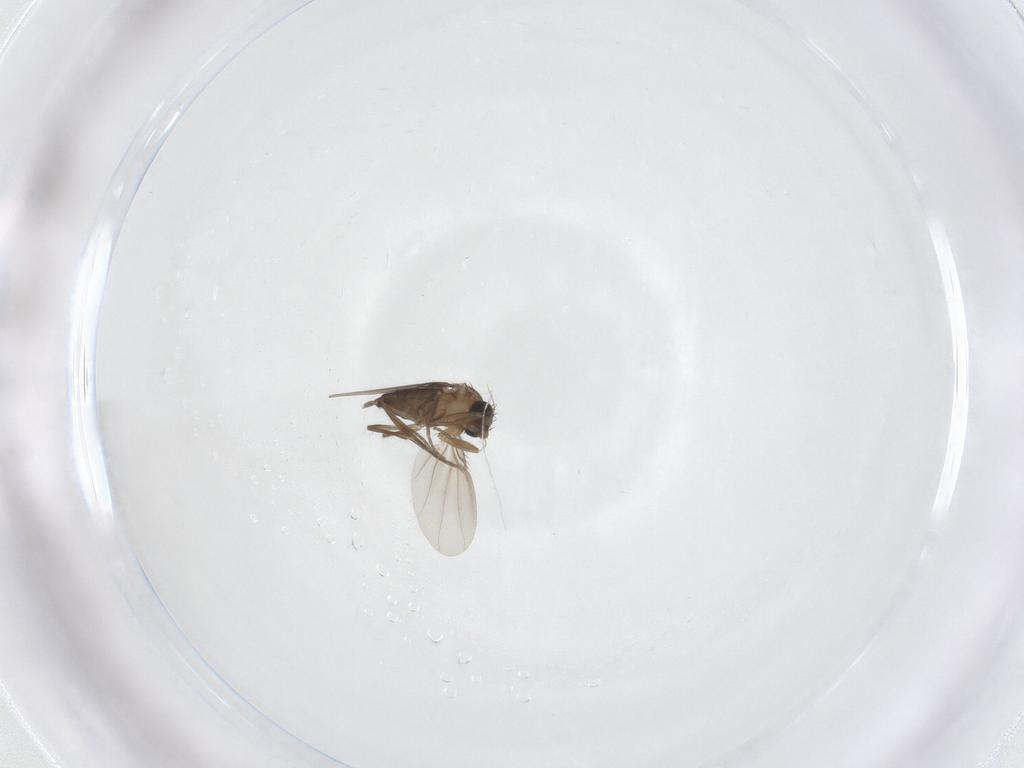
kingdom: Animalia
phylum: Arthropoda
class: Insecta
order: Diptera
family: Phoridae
